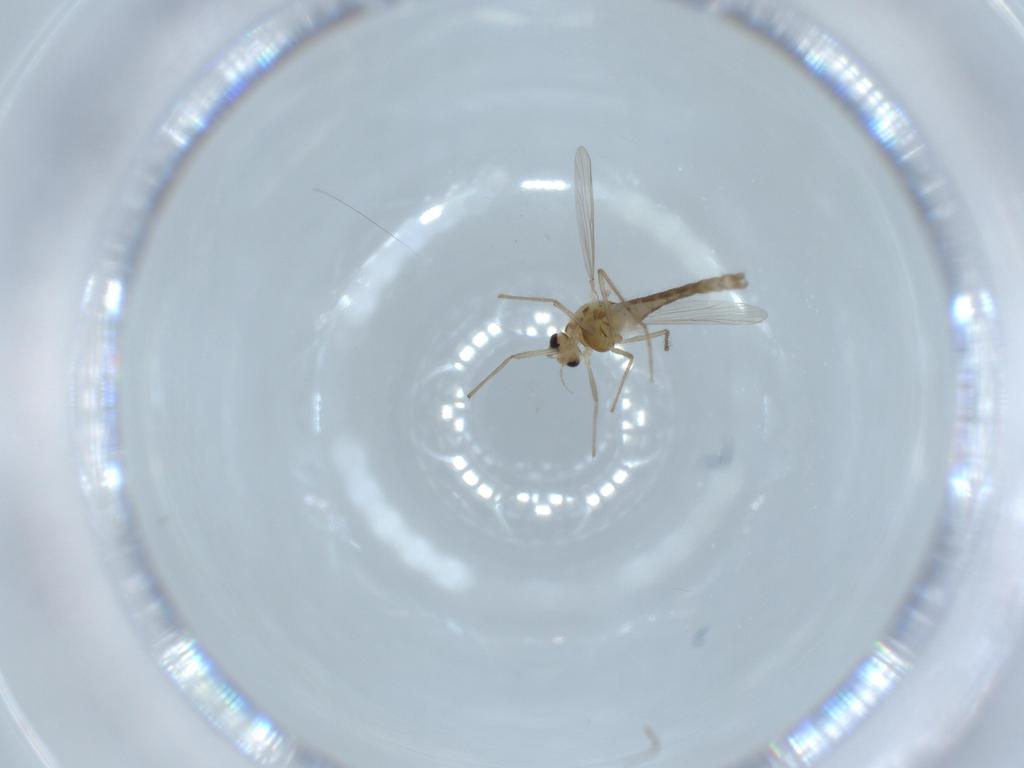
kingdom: Animalia
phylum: Arthropoda
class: Insecta
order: Diptera
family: Chironomidae
